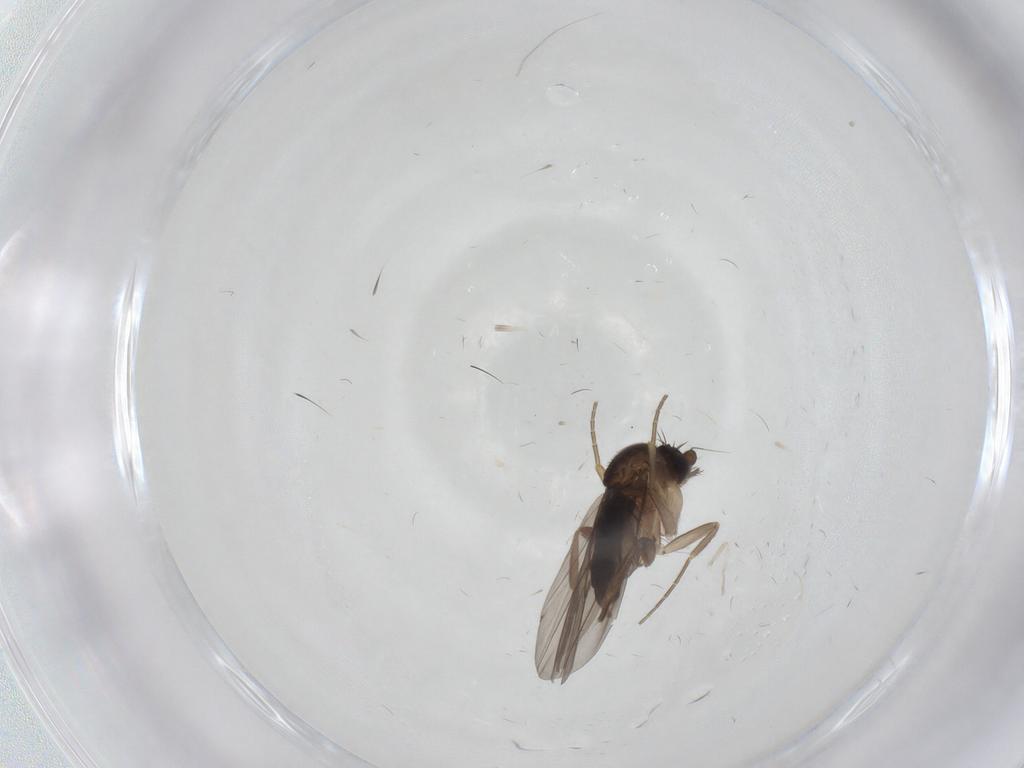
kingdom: Animalia
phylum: Arthropoda
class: Insecta
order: Diptera
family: Phoridae
